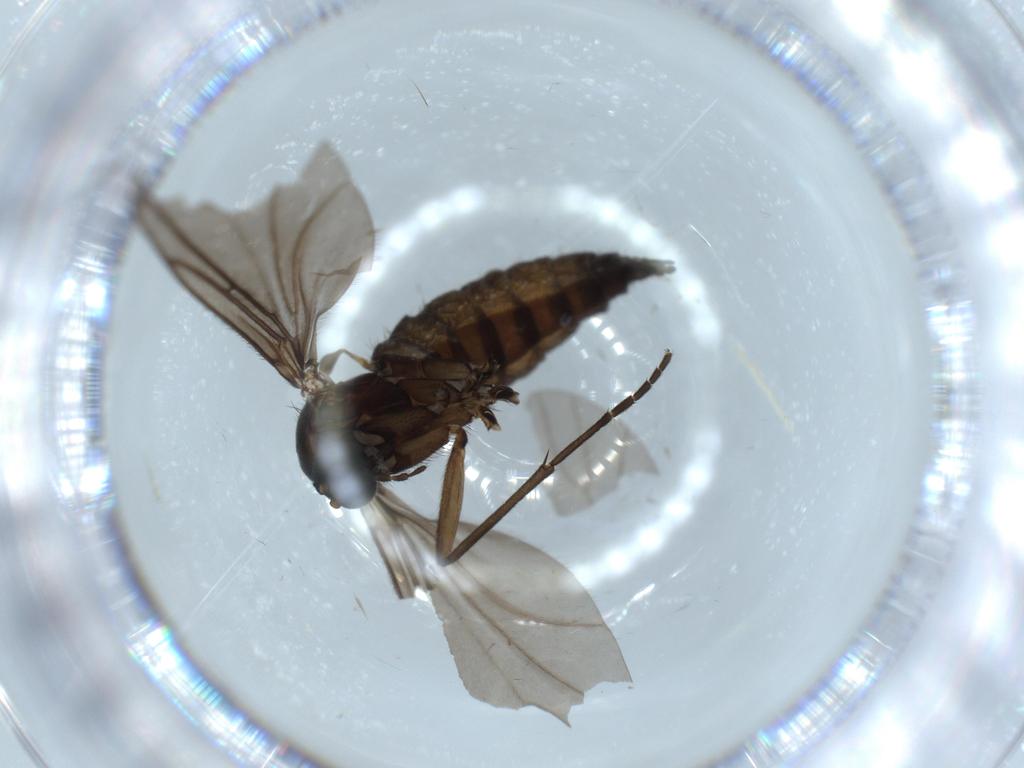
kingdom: Animalia
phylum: Arthropoda
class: Insecta
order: Diptera
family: Sciaridae
